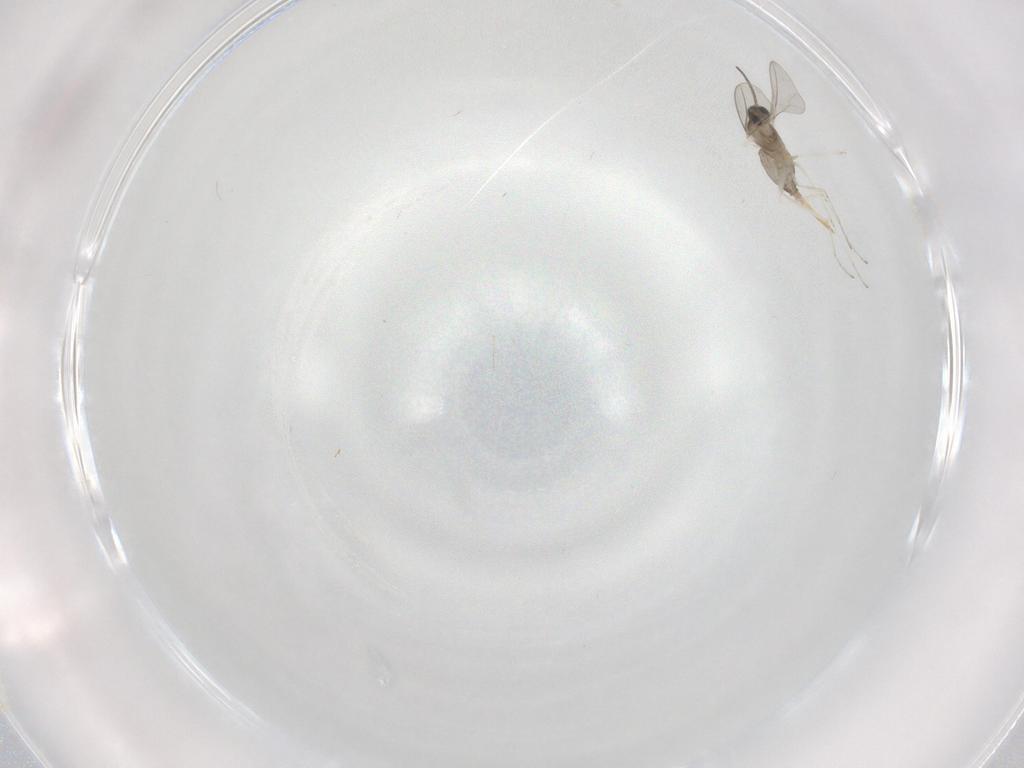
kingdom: Animalia
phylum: Arthropoda
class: Insecta
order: Diptera
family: Cecidomyiidae
